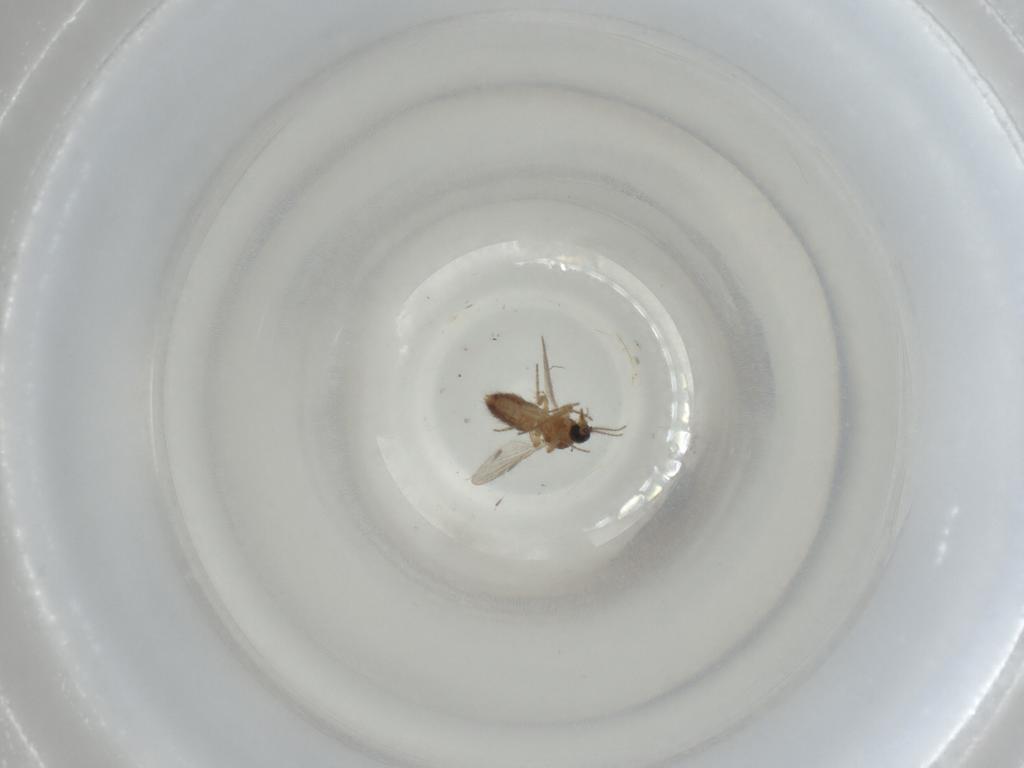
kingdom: Animalia
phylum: Arthropoda
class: Insecta
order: Diptera
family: Ceratopogonidae
